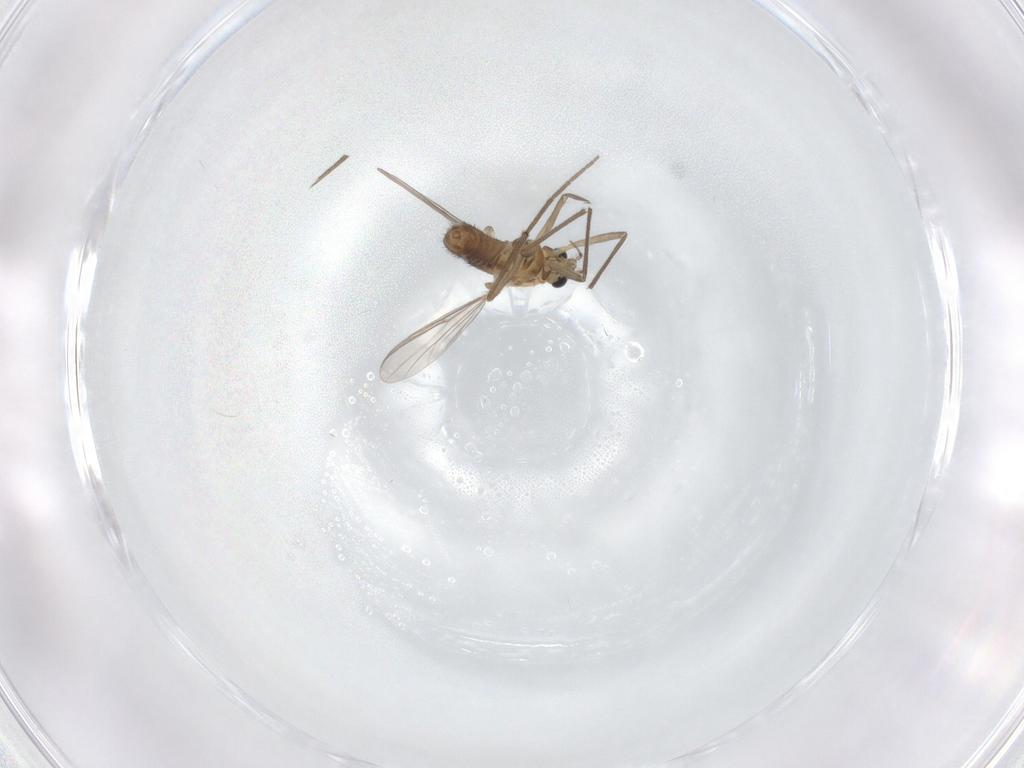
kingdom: Animalia
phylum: Arthropoda
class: Insecta
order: Diptera
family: Chironomidae
